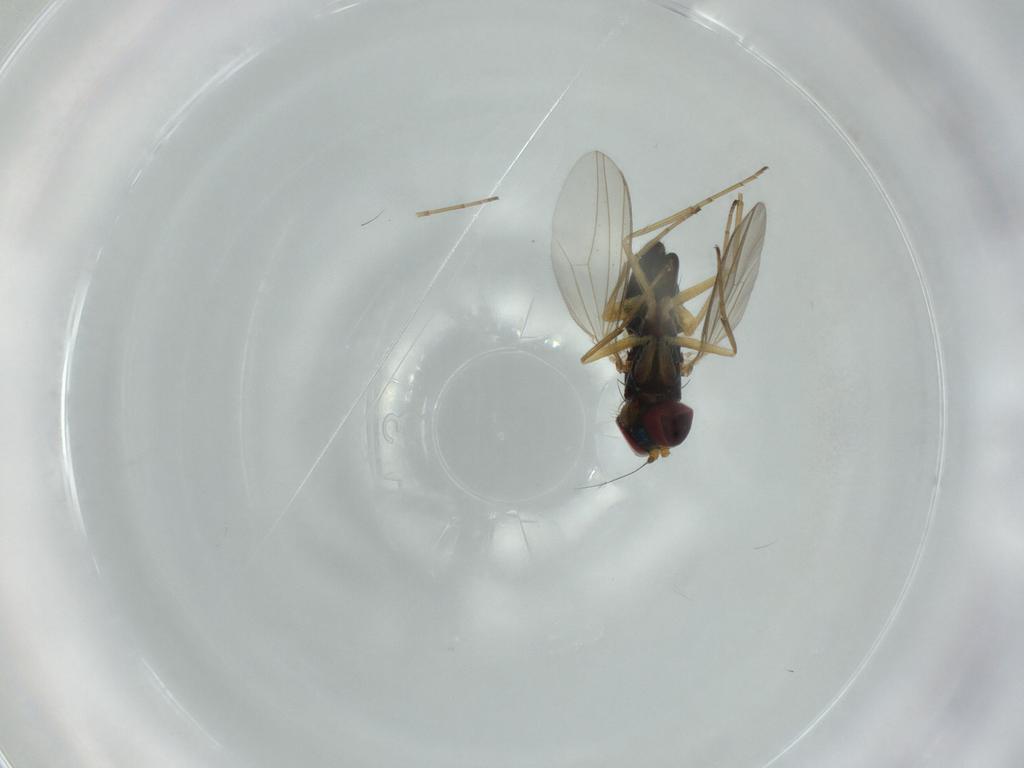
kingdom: Animalia
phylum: Arthropoda
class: Insecta
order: Diptera
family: Dolichopodidae
